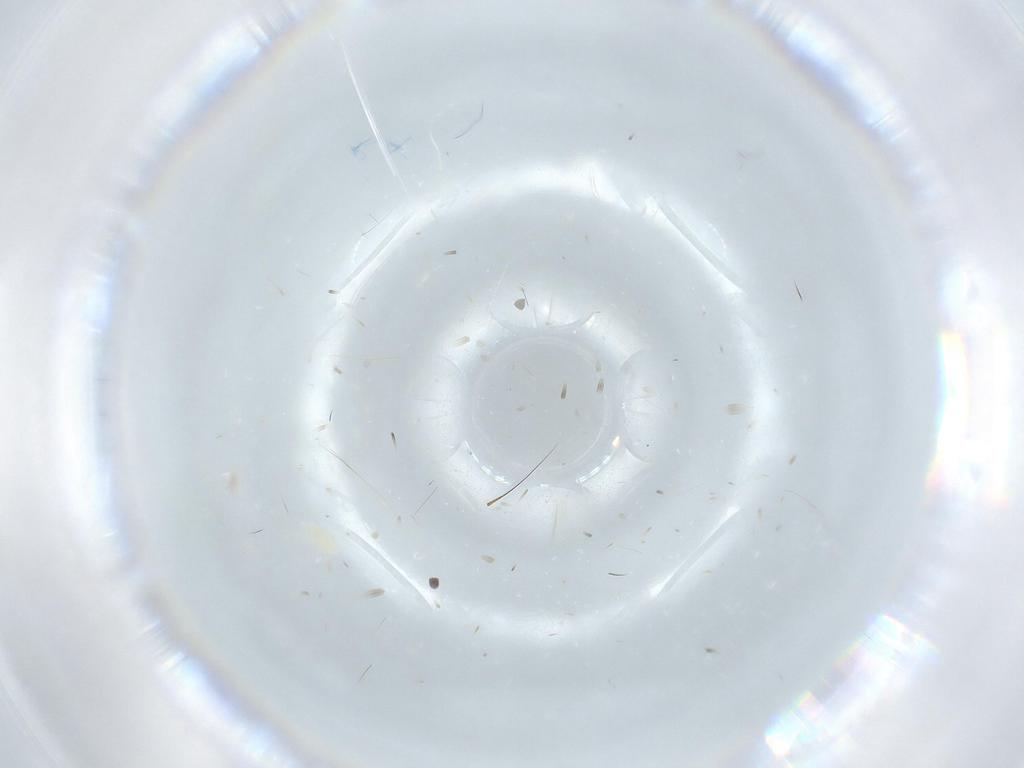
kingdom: Animalia
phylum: Arthropoda
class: Insecta
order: Hemiptera
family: Cicadellidae
